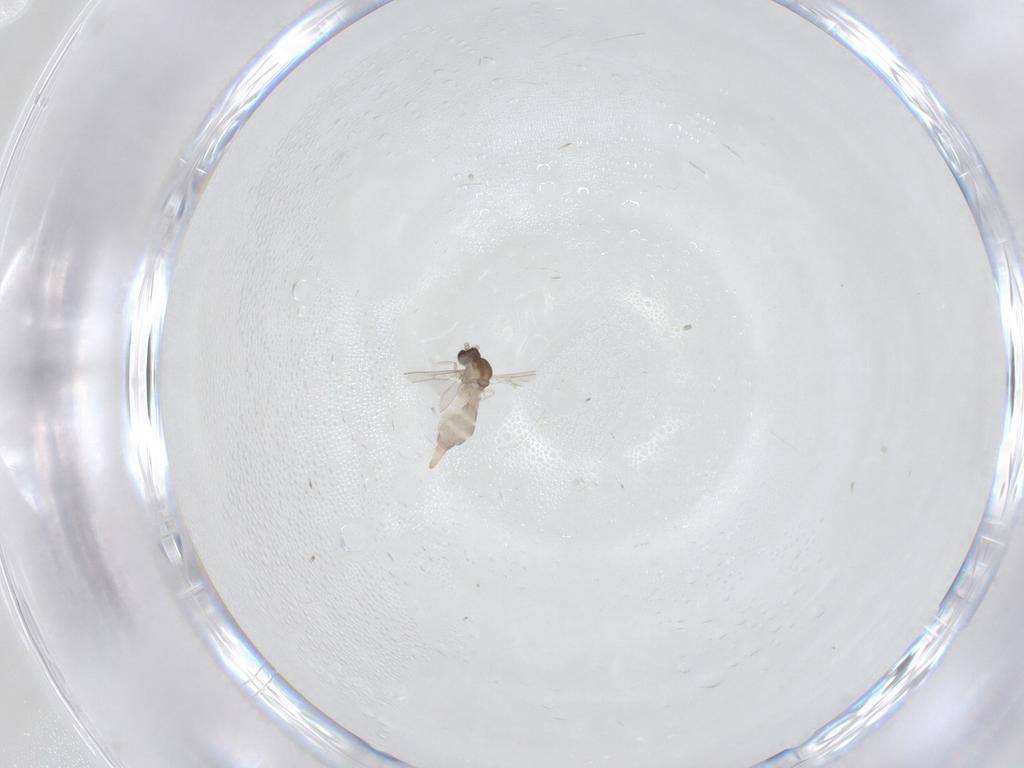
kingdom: Animalia
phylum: Arthropoda
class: Insecta
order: Diptera
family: Cecidomyiidae
